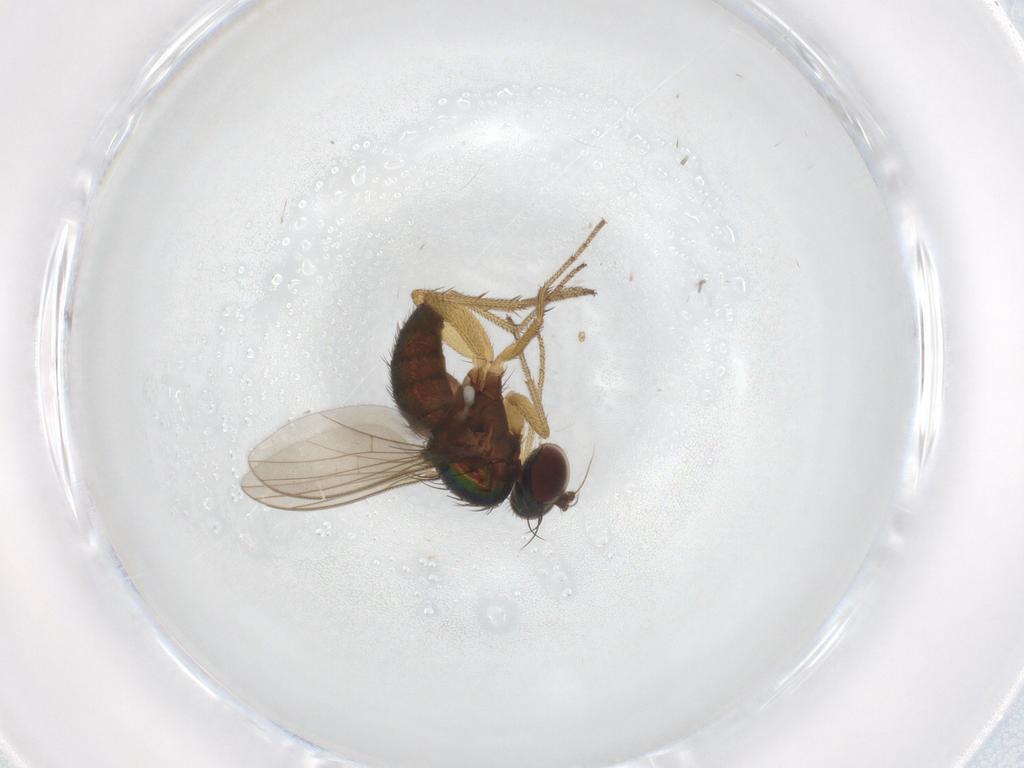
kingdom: Animalia
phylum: Arthropoda
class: Insecta
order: Diptera
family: Dolichopodidae
